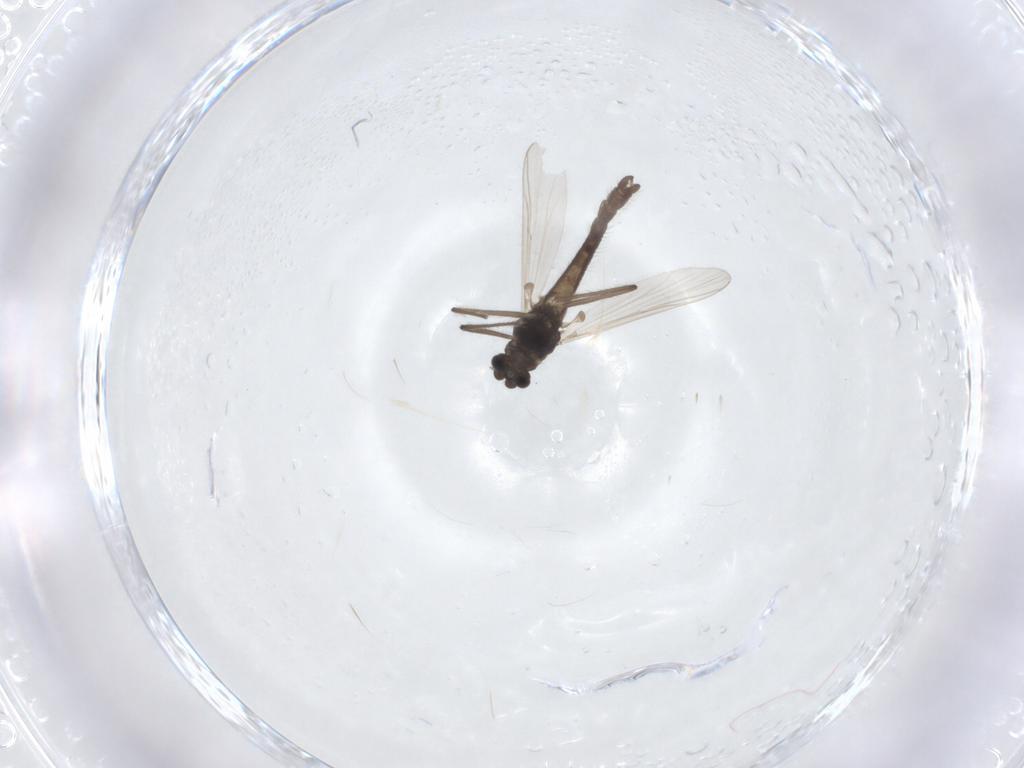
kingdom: Animalia
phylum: Arthropoda
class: Insecta
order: Diptera
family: Chironomidae
